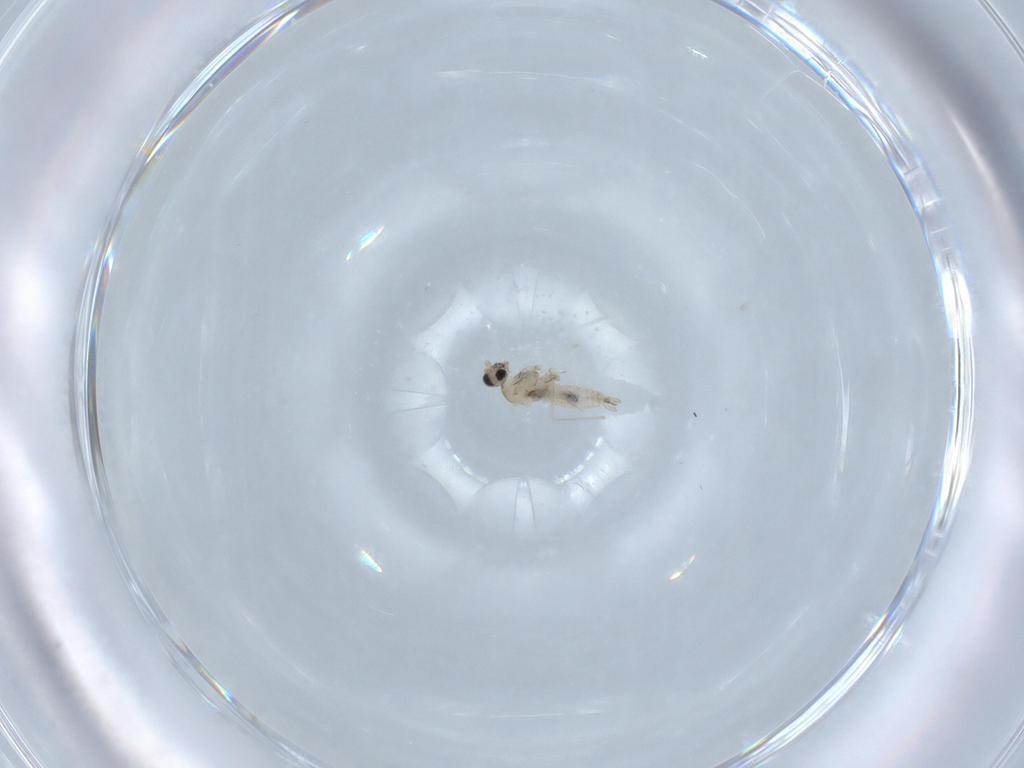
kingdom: Animalia
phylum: Arthropoda
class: Insecta
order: Diptera
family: Cecidomyiidae
